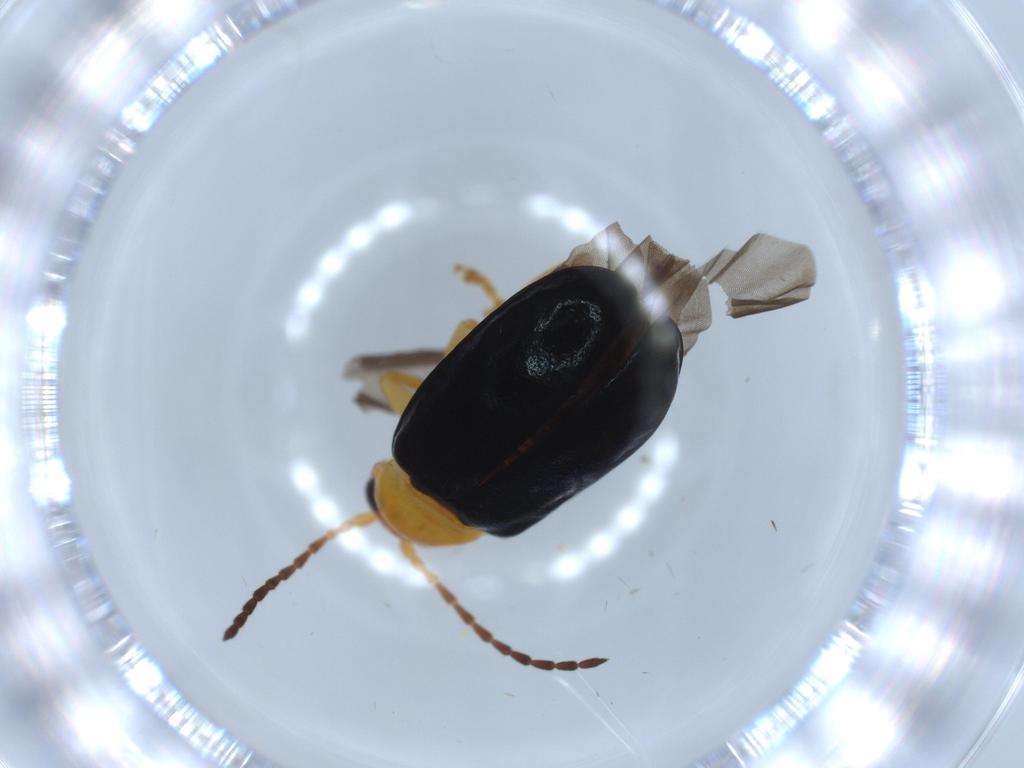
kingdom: Animalia
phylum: Arthropoda
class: Insecta
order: Coleoptera
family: Chrysomelidae
